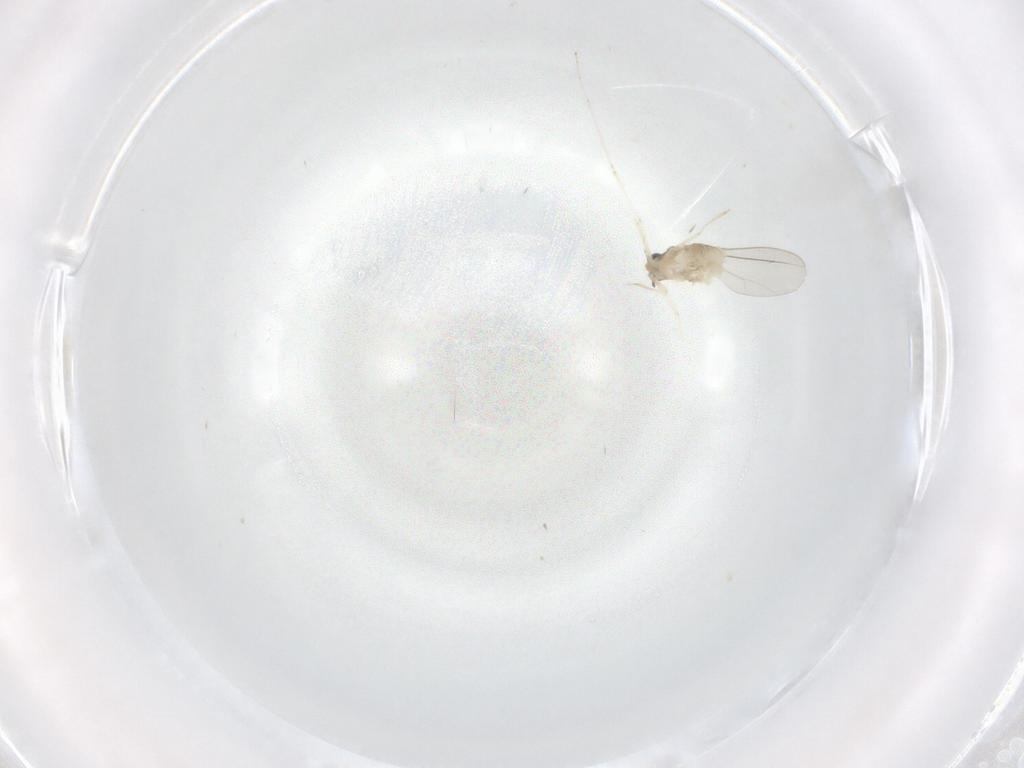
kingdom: Animalia
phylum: Arthropoda
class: Insecta
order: Diptera
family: Cecidomyiidae
